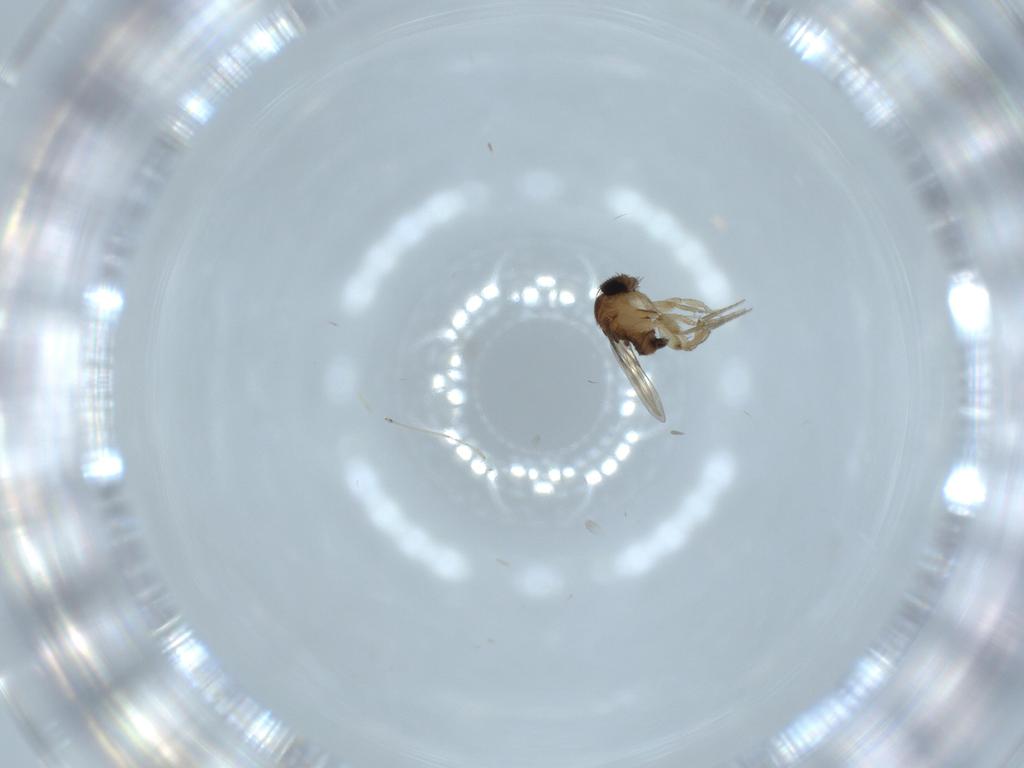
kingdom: Animalia
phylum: Arthropoda
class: Insecta
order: Diptera
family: Phoridae
